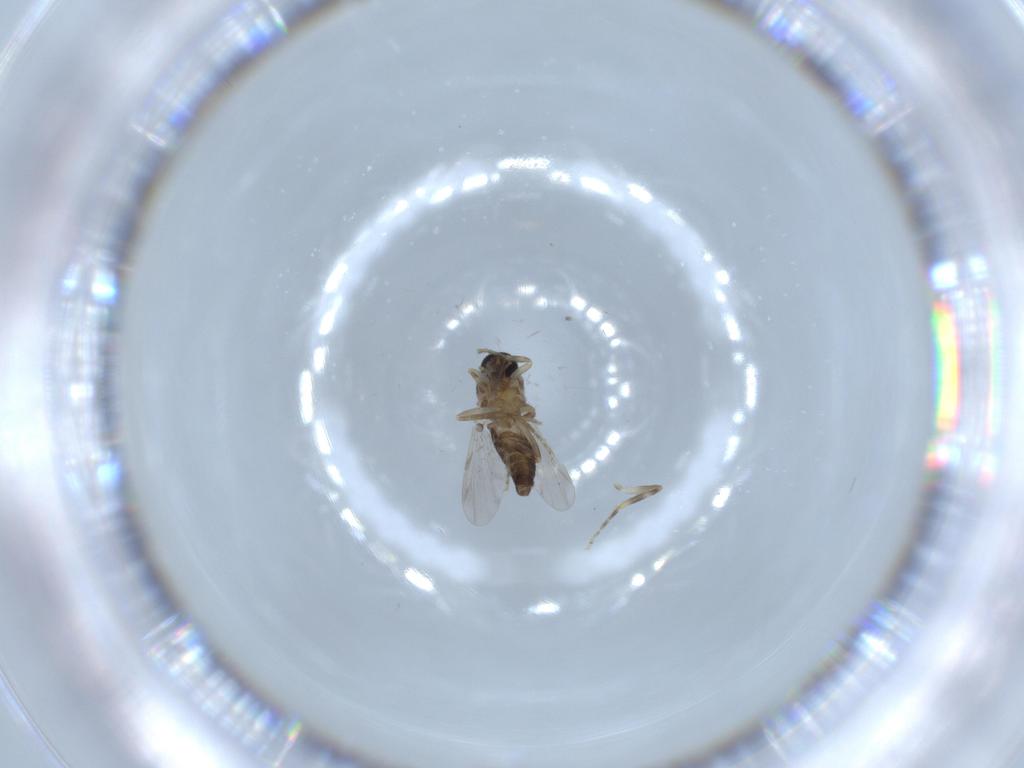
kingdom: Animalia
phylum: Arthropoda
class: Insecta
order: Diptera
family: Ceratopogonidae
